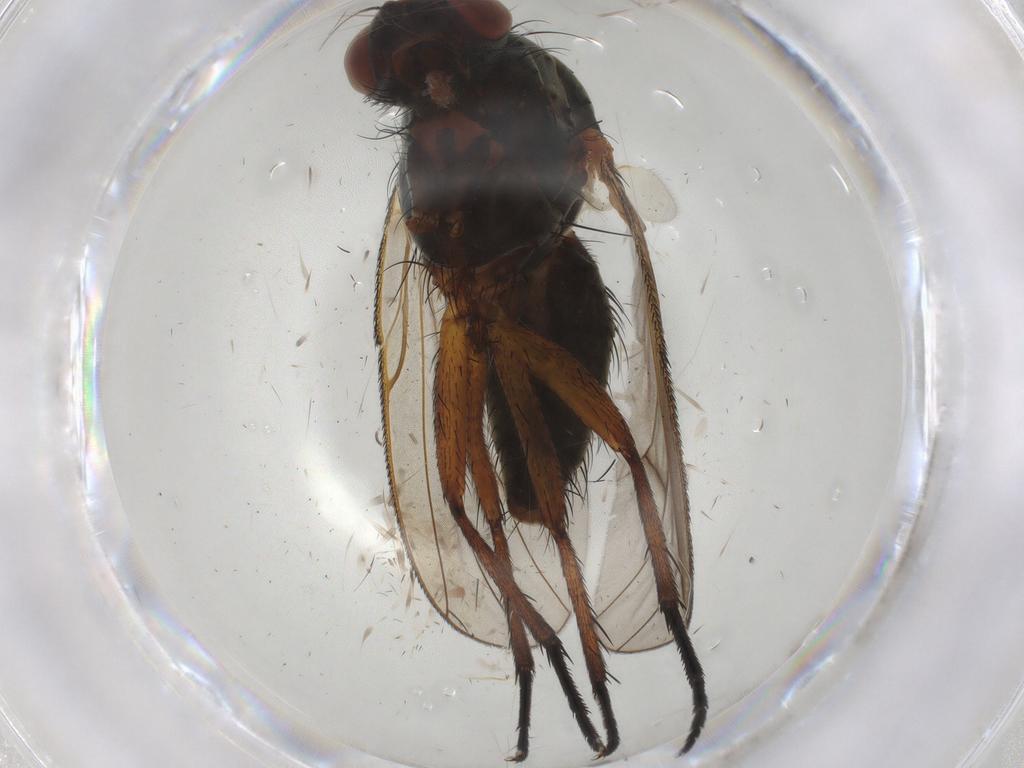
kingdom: Animalia
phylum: Arthropoda
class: Insecta
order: Diptera
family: Anthomyiidae
